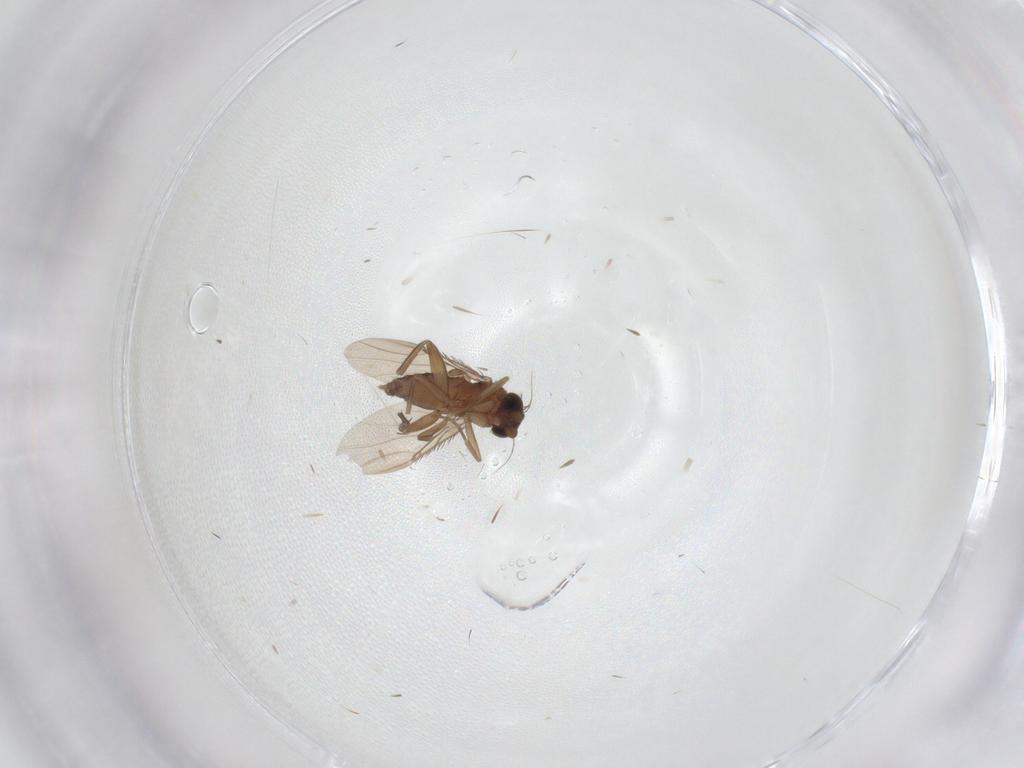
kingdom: Animalia
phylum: Arthropoda
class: Insecta
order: Diptera
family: Phoridae
